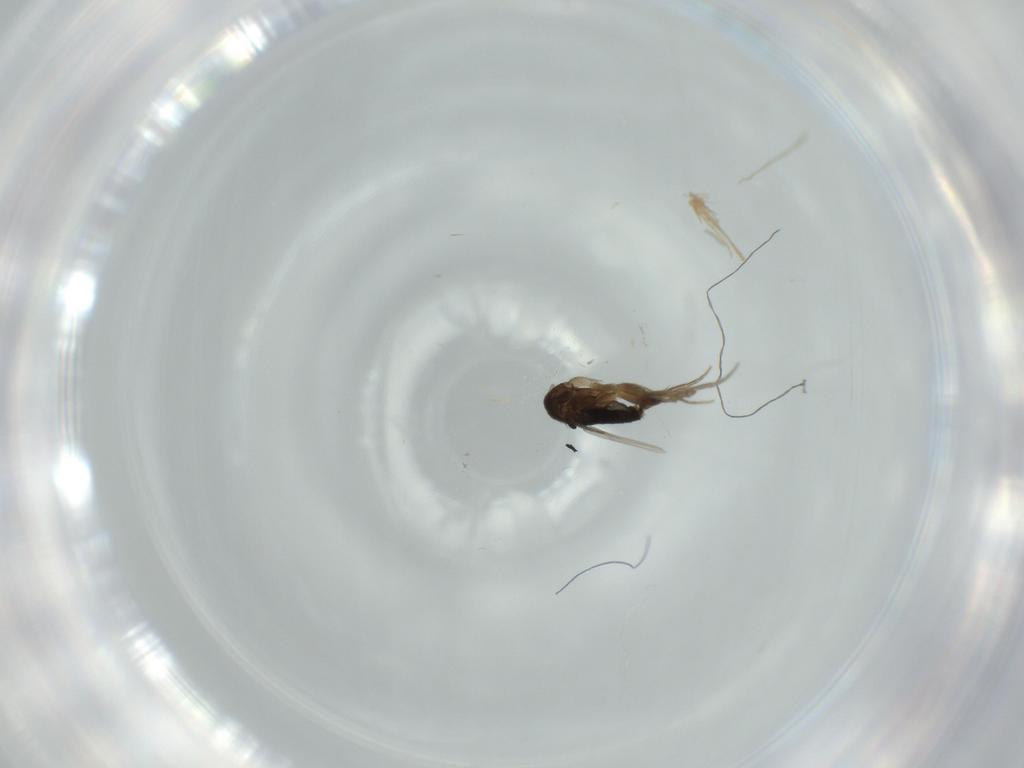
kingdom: Animalia
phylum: Arthropoda
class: Insecta
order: Diptera
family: Phoridae
